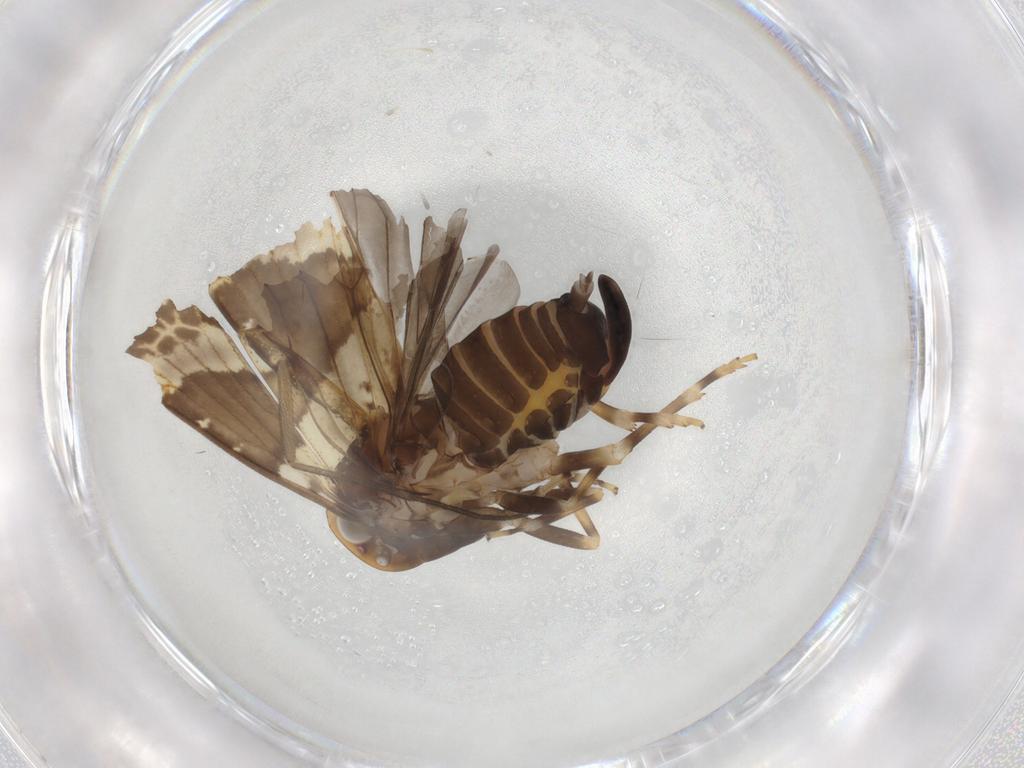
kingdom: Animalia
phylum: Arthropoda
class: Insecta
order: Hemiptera
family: Cixiidae
